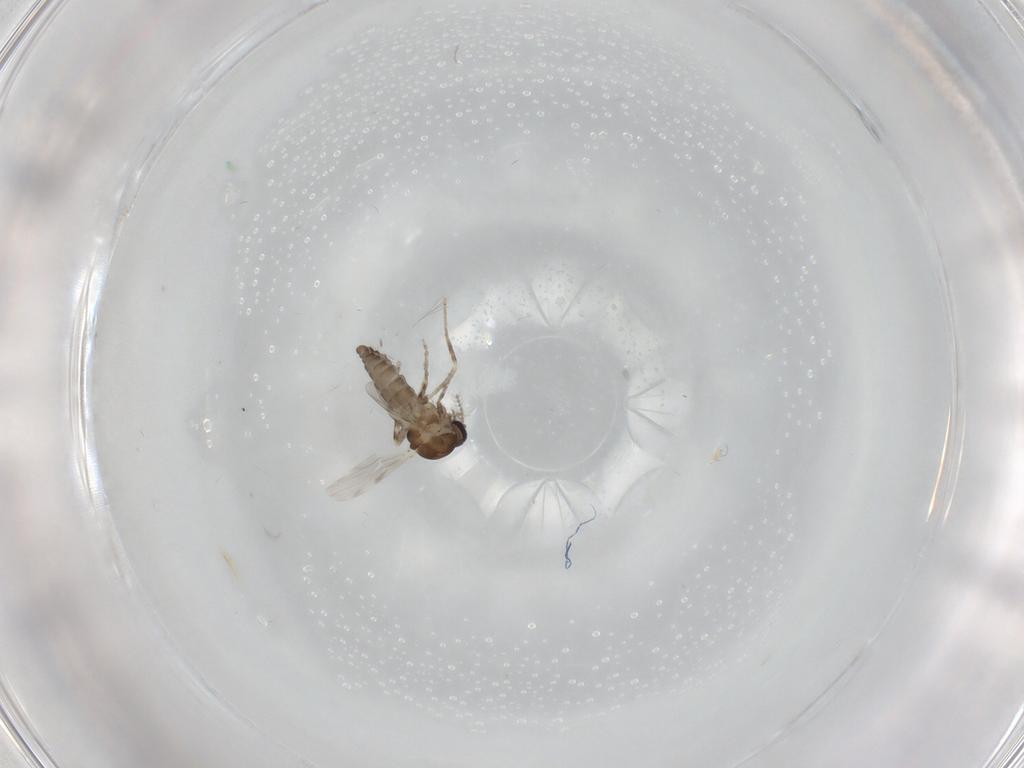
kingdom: Animalia
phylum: Arthropoda
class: Insecta
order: Diptera
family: Ceratopogonidae
